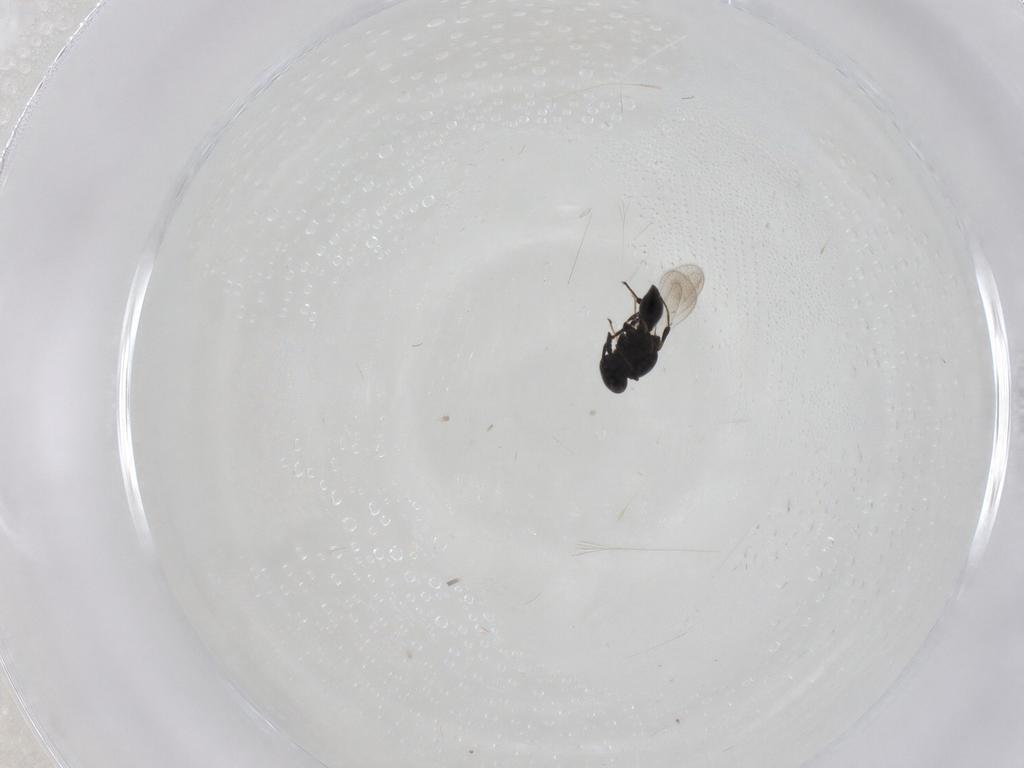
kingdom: Animalia
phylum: Arthropoda
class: Insecta
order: Hymenoptera
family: Platygastridae
